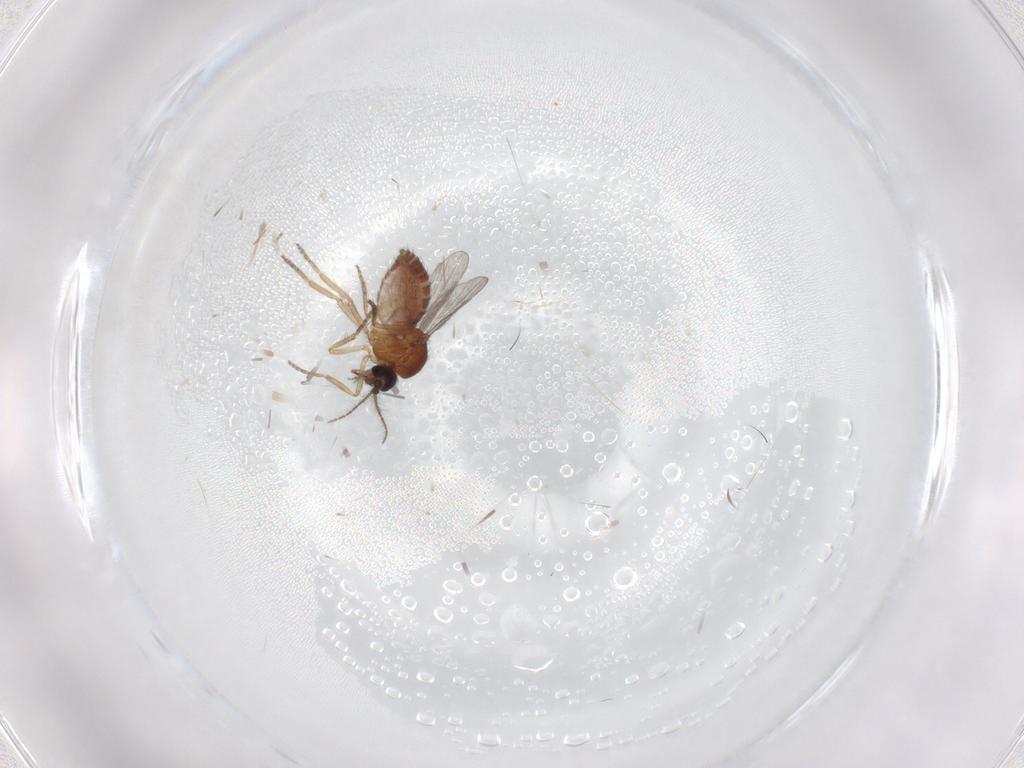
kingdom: Animalia
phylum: Arthropoda
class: Insecta
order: Diptera
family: Ceratopogonidae
